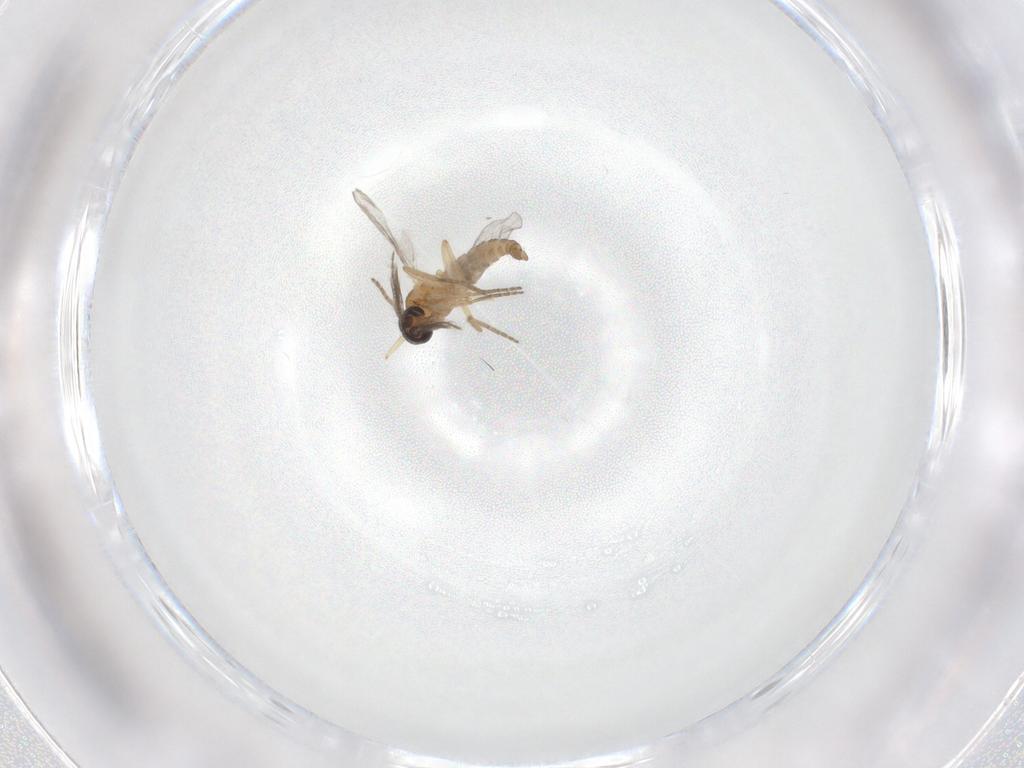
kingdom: Animalia
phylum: Arthropoda
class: Insecta
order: Diptera
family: Ceratopogonidae
